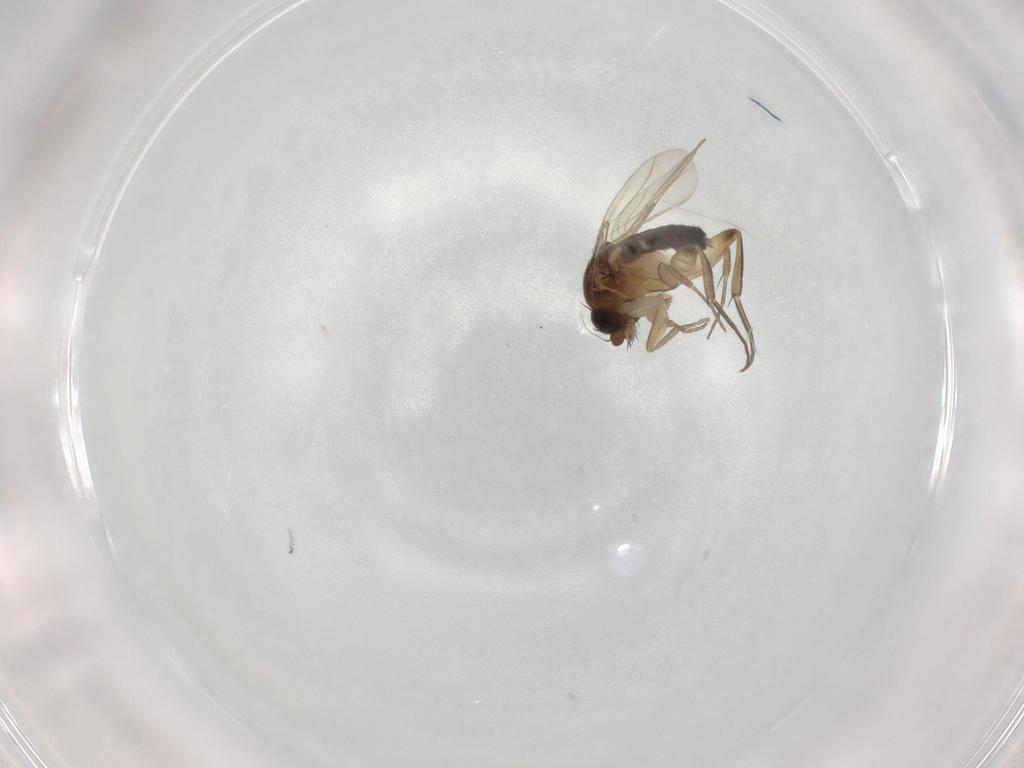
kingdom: Animalia
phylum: Arthropoda
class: Insecta
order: Diptera
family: Phoridae
